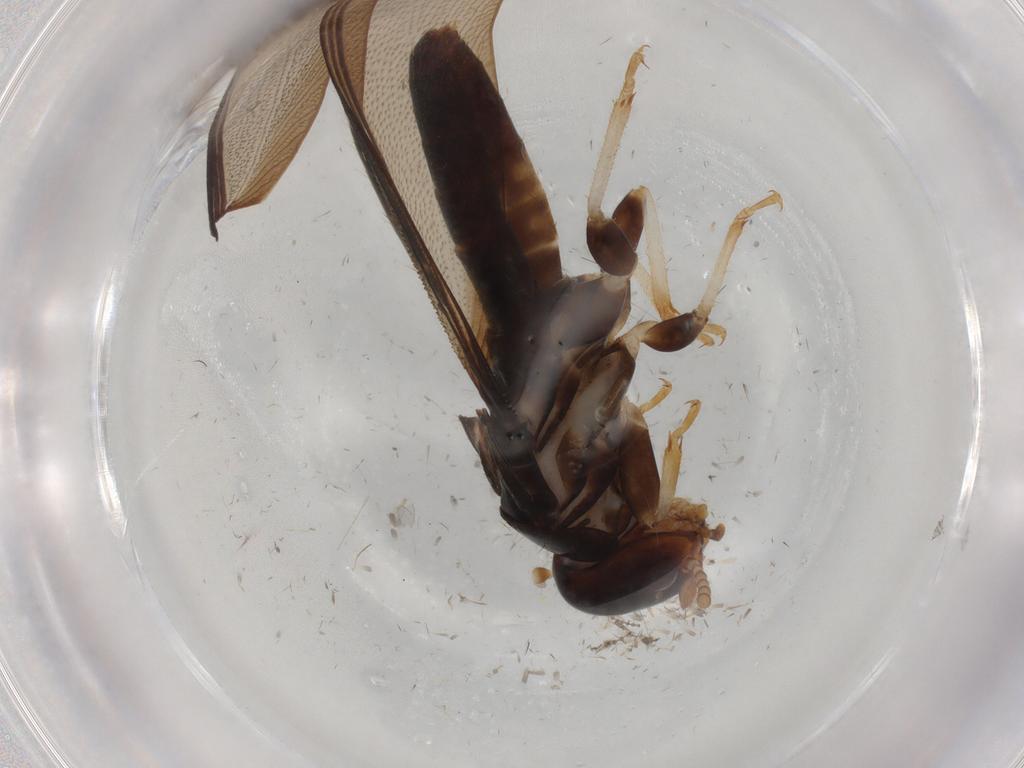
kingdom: Animalia
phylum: Arthropoda
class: Insecta
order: Blattodea
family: Kalotermitidae
